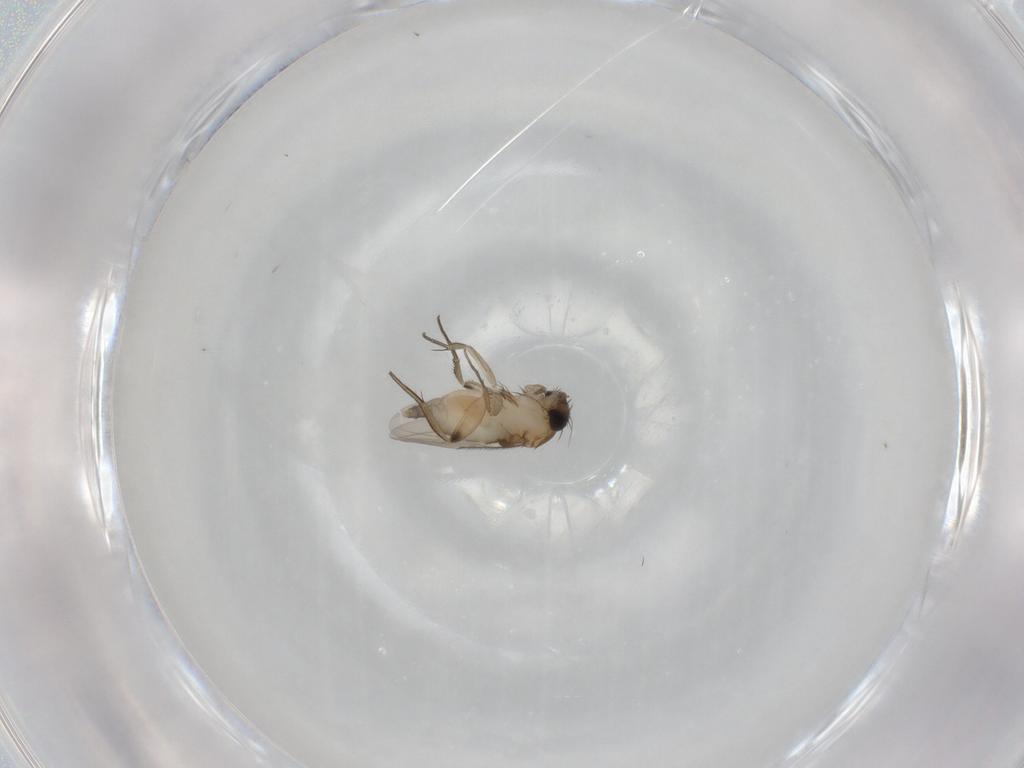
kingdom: Animalia
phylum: Arthropoda
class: Insecta
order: Diptera
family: Phoridae
